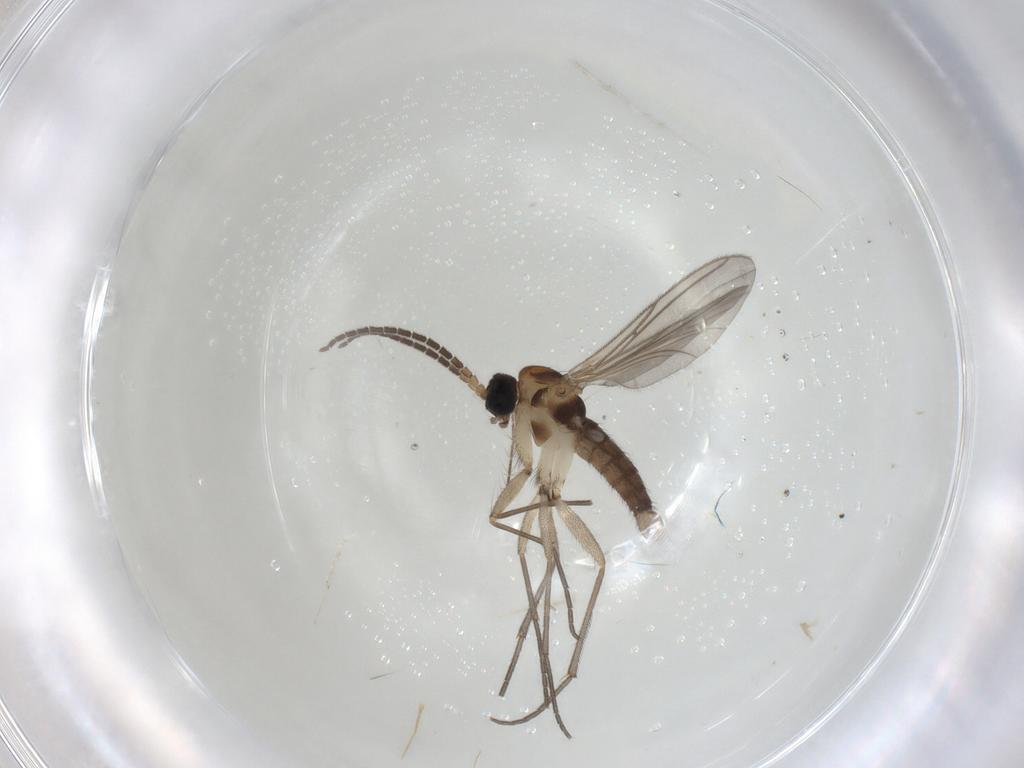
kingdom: Animalia
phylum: Arthropoda
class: Insecta
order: Diptera
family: Sciaridae
